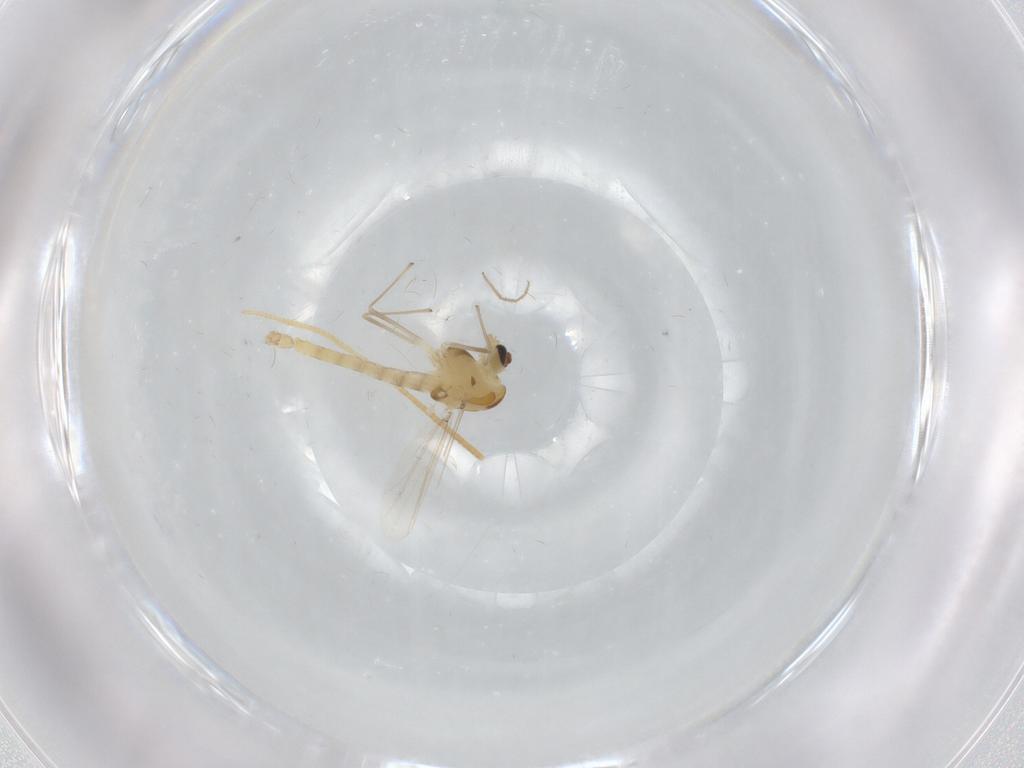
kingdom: Animalia
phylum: Arthropoda
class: Insecta
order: Diptera
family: Chironomidae
